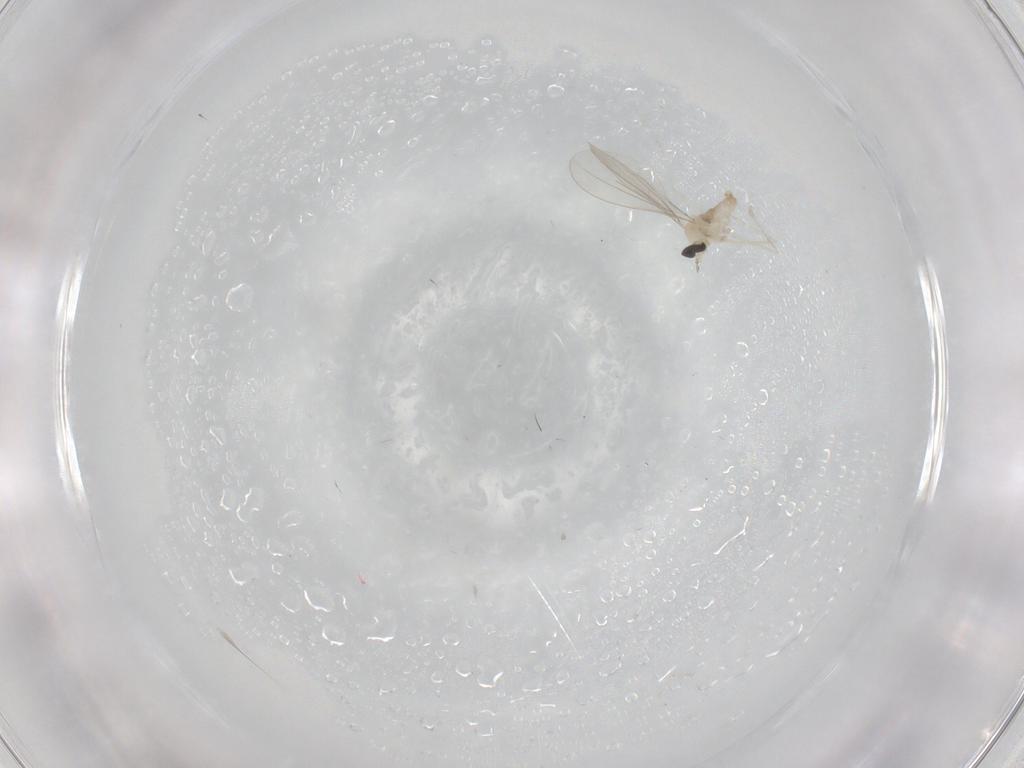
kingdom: Animalia
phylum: Arthropoda
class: Insecta
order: Diptera
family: Cecidomyiidae
